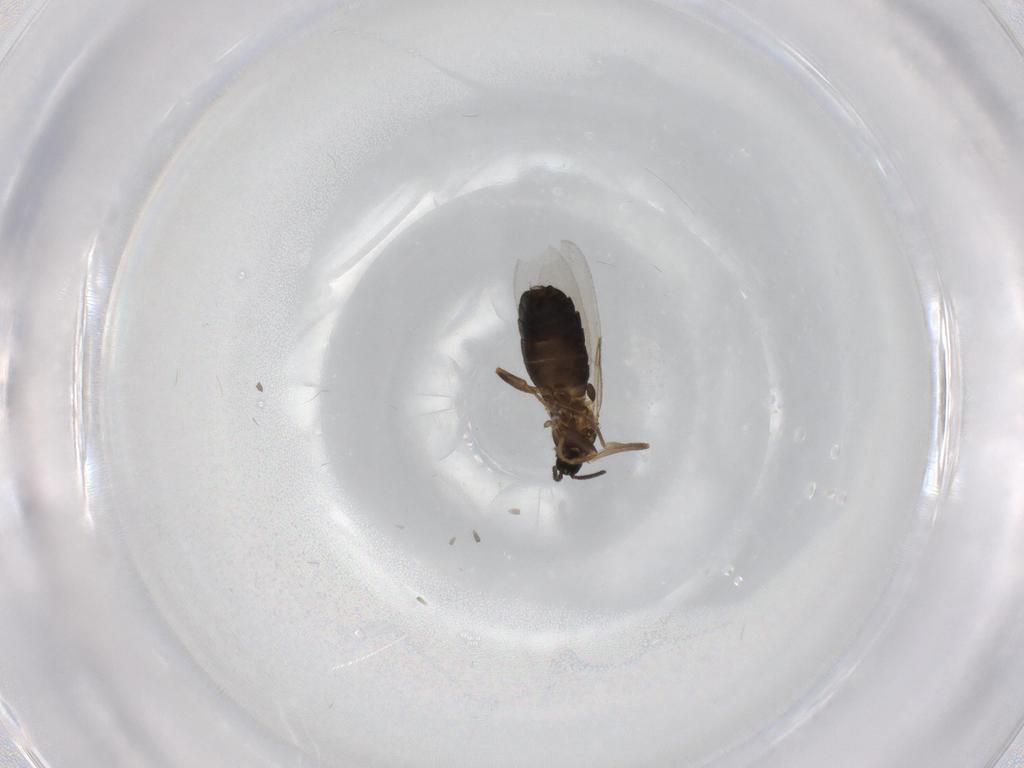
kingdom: Animalia
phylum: Arthropoda
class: Insecta
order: Diptera
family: Scatopsidae
